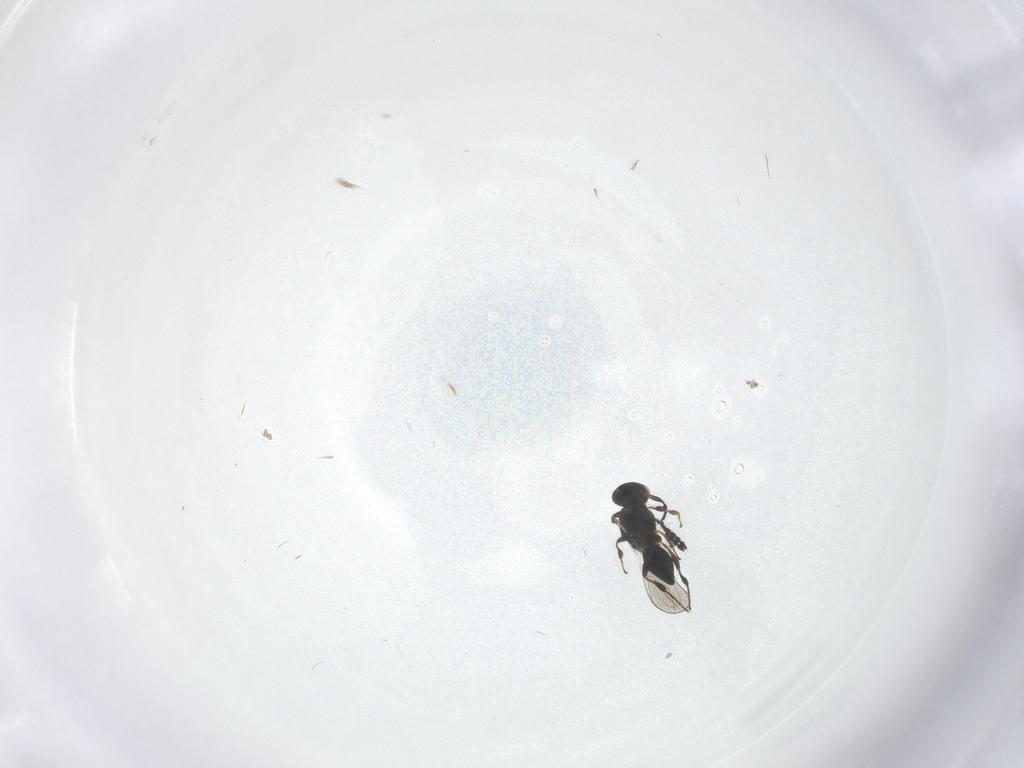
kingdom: Animalia
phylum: Arthropoda
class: Insecta
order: Hymenoptera
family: Platygastridae
